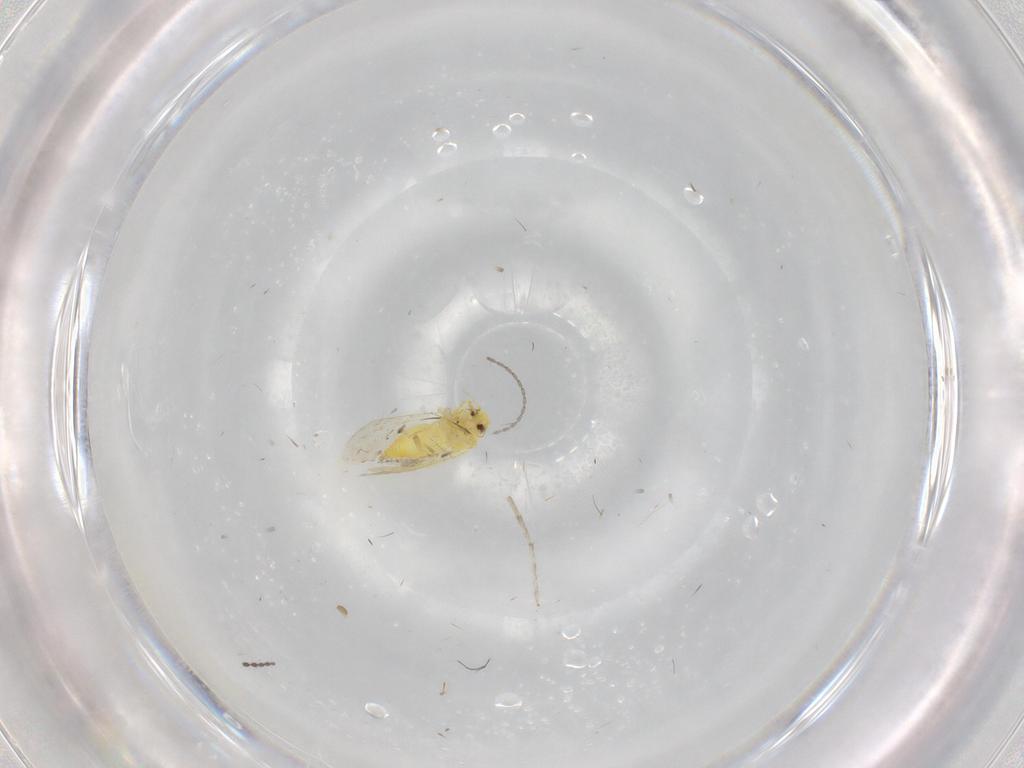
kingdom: Animalia
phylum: Arthropoda
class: Insecta
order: Hemiptera
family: Aleyrodidae
